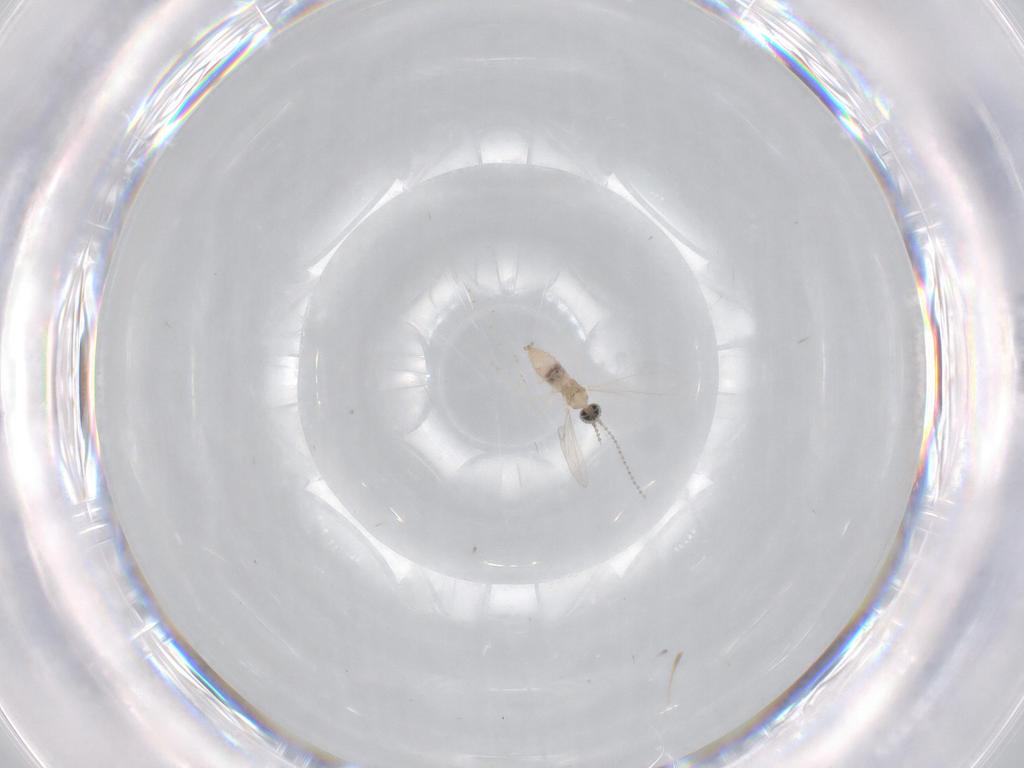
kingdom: Animalia
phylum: Arthropoda
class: Insecta
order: Diptera
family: Cecidomyiidae
